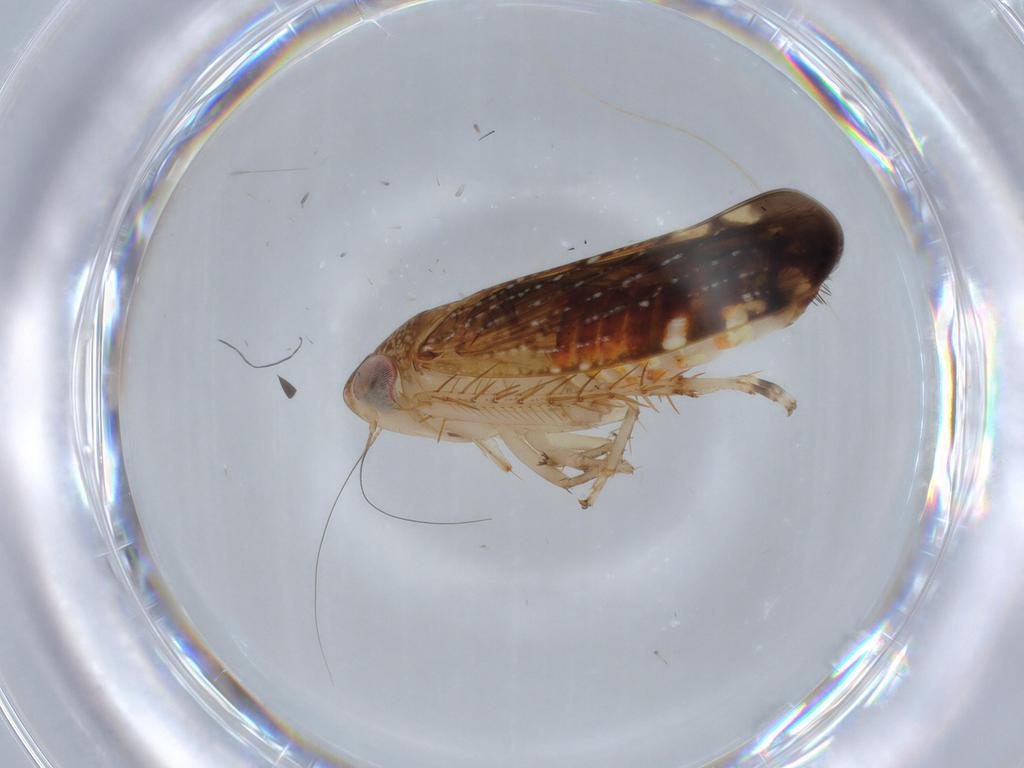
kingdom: Animalia
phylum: Arthropoda
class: Insecta
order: Hemiptera
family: Cicadellidae
